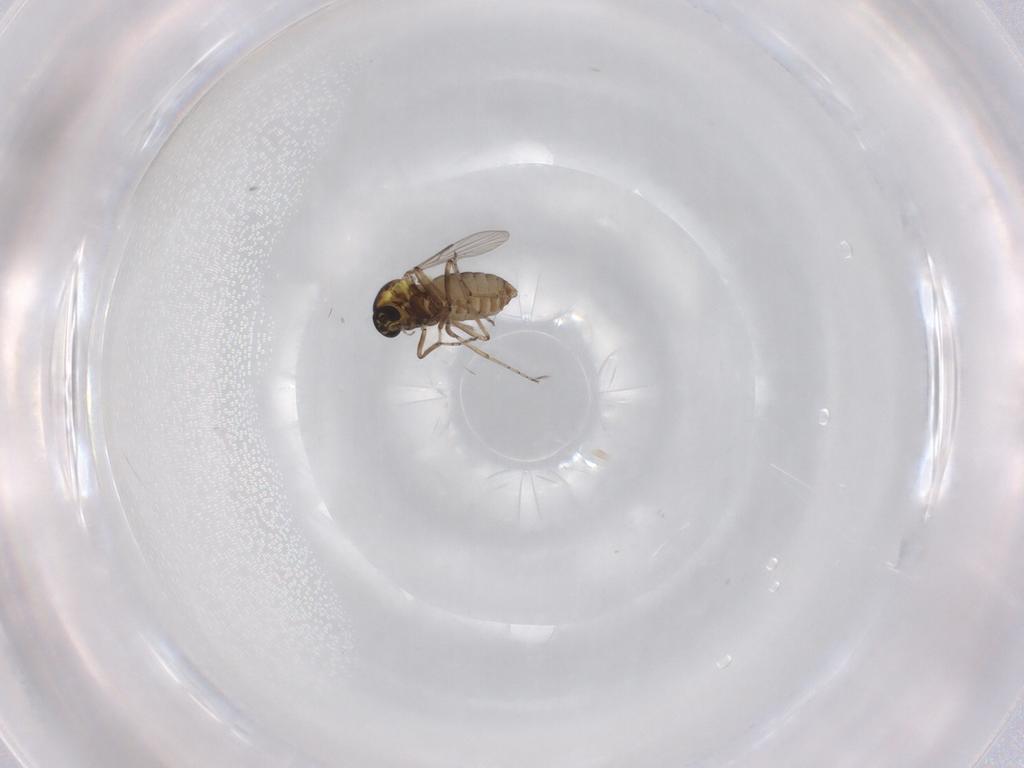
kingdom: Animalia
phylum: Arthropoda
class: Insecta
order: Diptera
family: Ceratopogonidae
